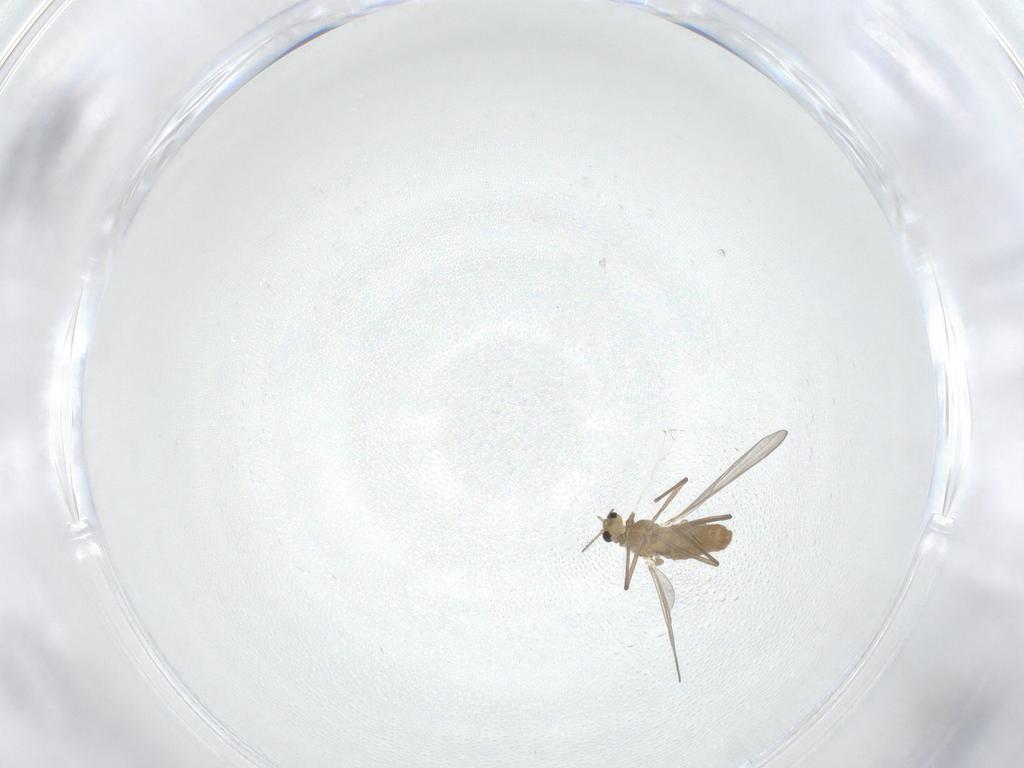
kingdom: Animalia
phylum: Arthropoda
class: Insecta
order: Diptera
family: Chironomidae
